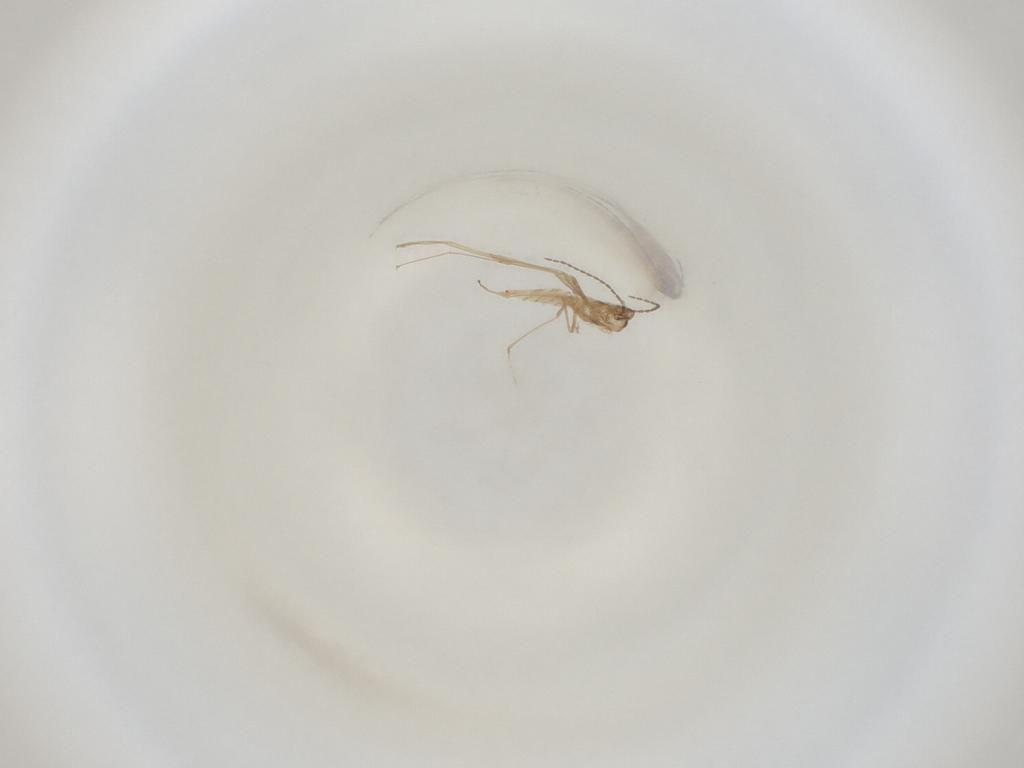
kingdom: Animalia
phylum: Arthropoda
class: Insecta
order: Diptera
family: Cecidomyiidae
